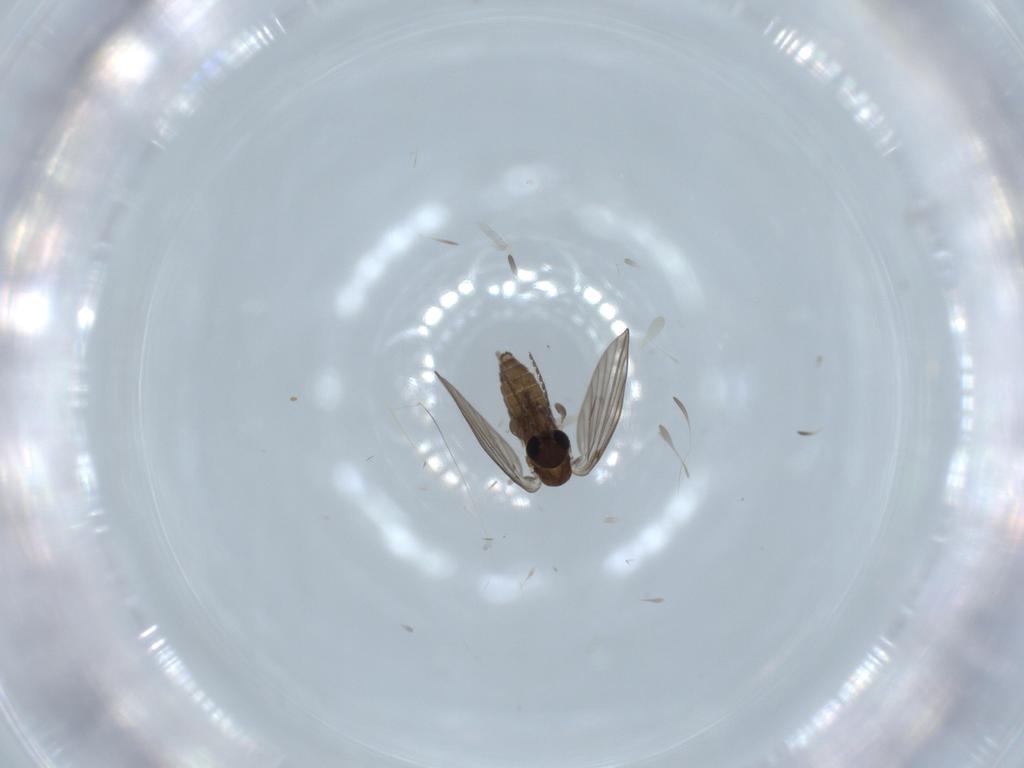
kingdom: Animalia
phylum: Arthropoda
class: Insecta
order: Diptera
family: Psychodidae
